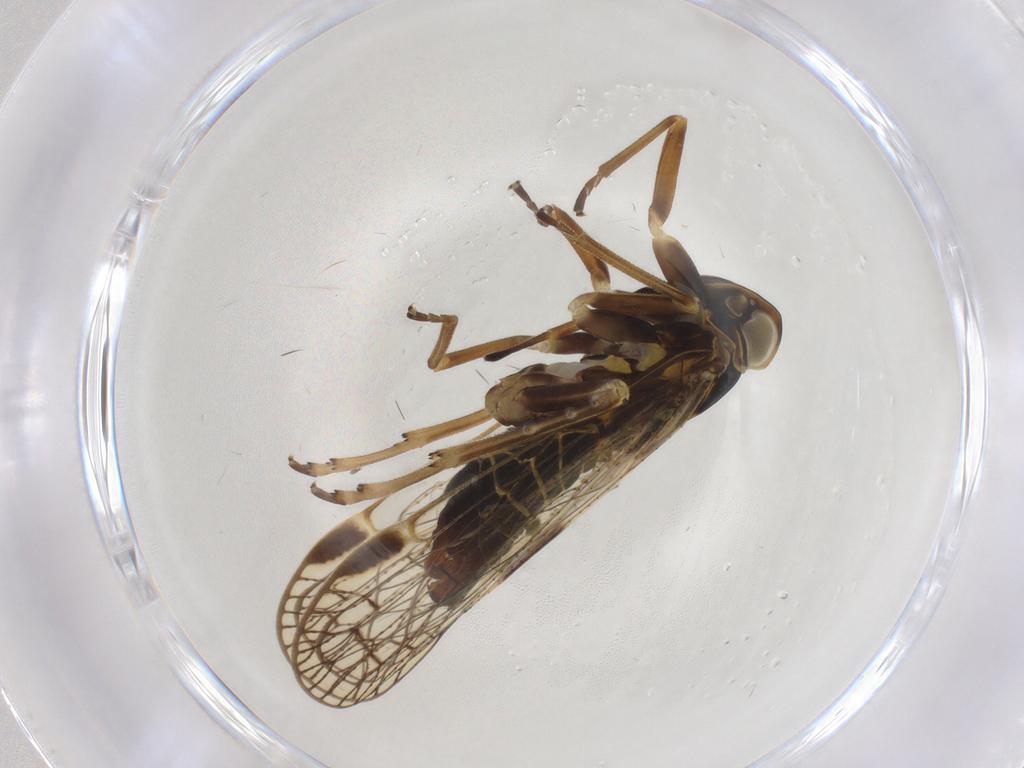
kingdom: Animalia
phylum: Arthropoda
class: Insecta
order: Hemiptera
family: Cixiidae
